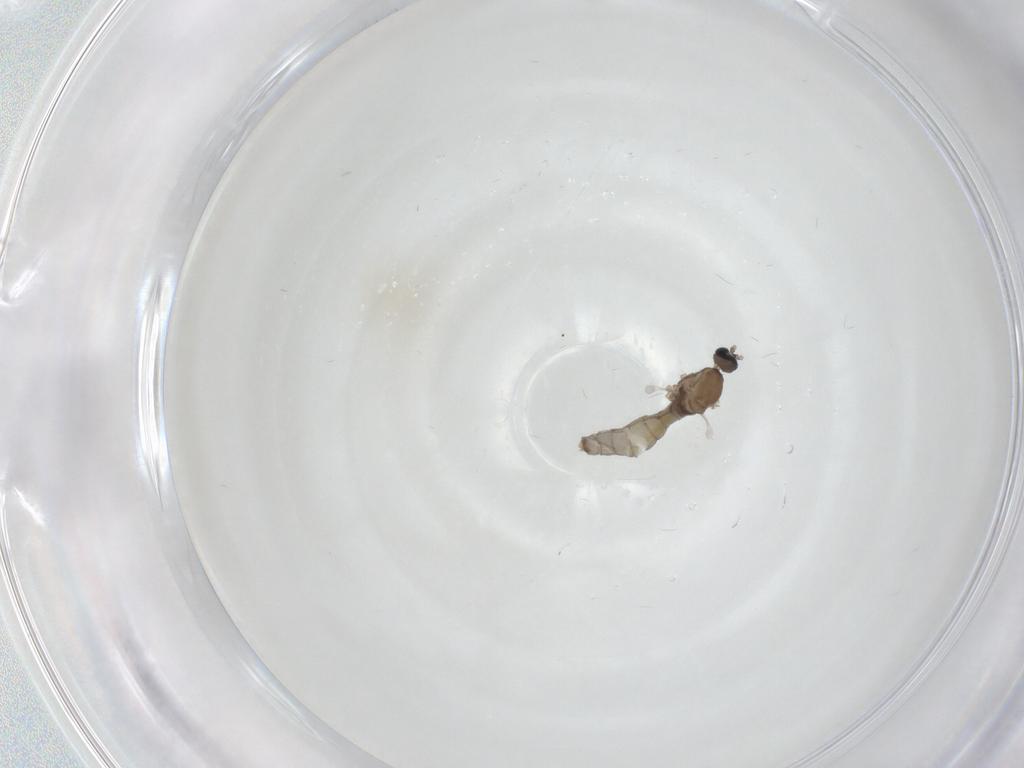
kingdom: Animalia
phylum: Arthropoda
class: Insecta
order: Diptera
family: Cecidomyiidae
